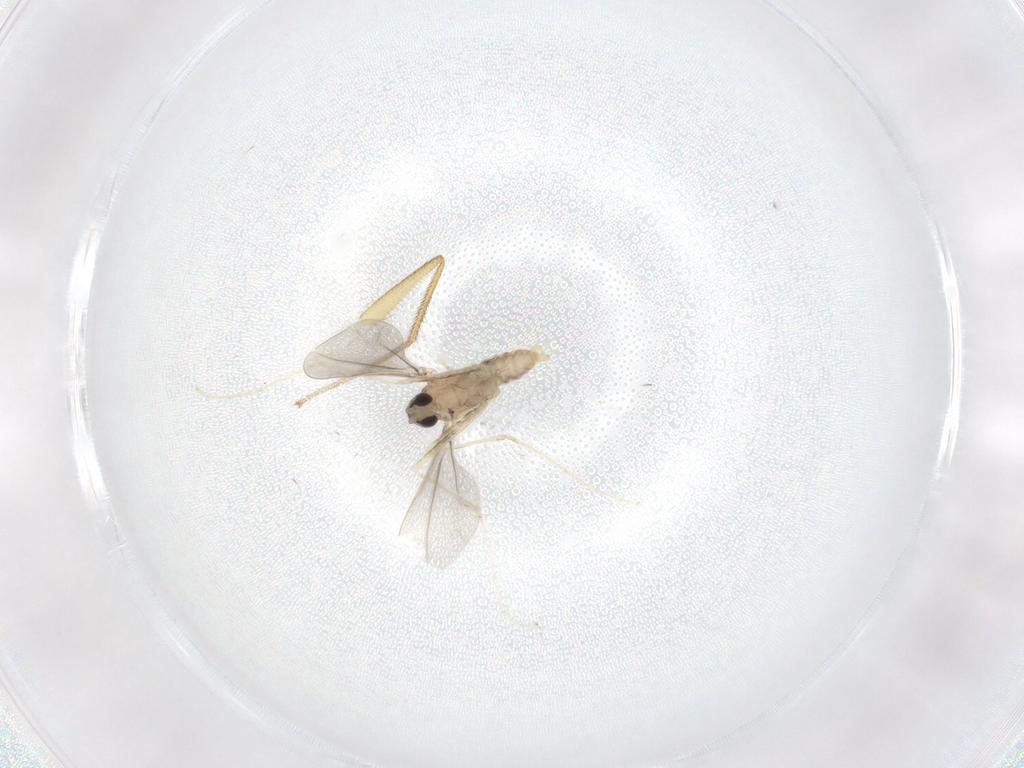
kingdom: Animalia
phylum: Arthropoda
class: Insecta
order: Diptera
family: Dolichopodidae
